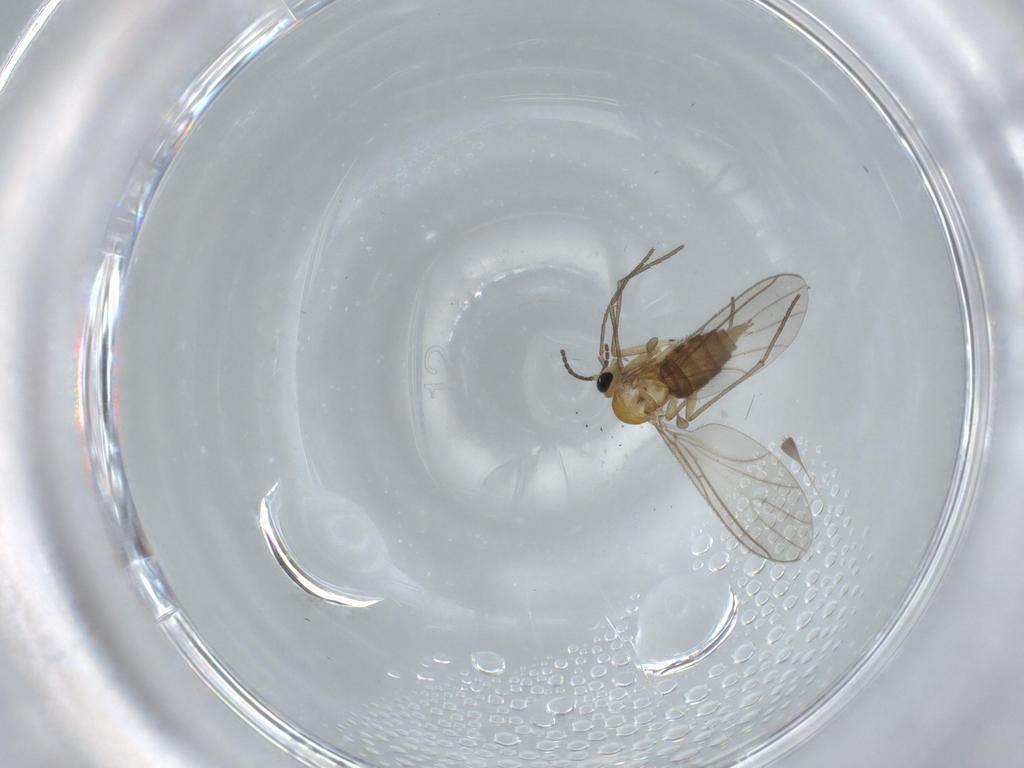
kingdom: Animalia
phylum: Arthropoda
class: Insecta
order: Diptera
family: Sciaridae
